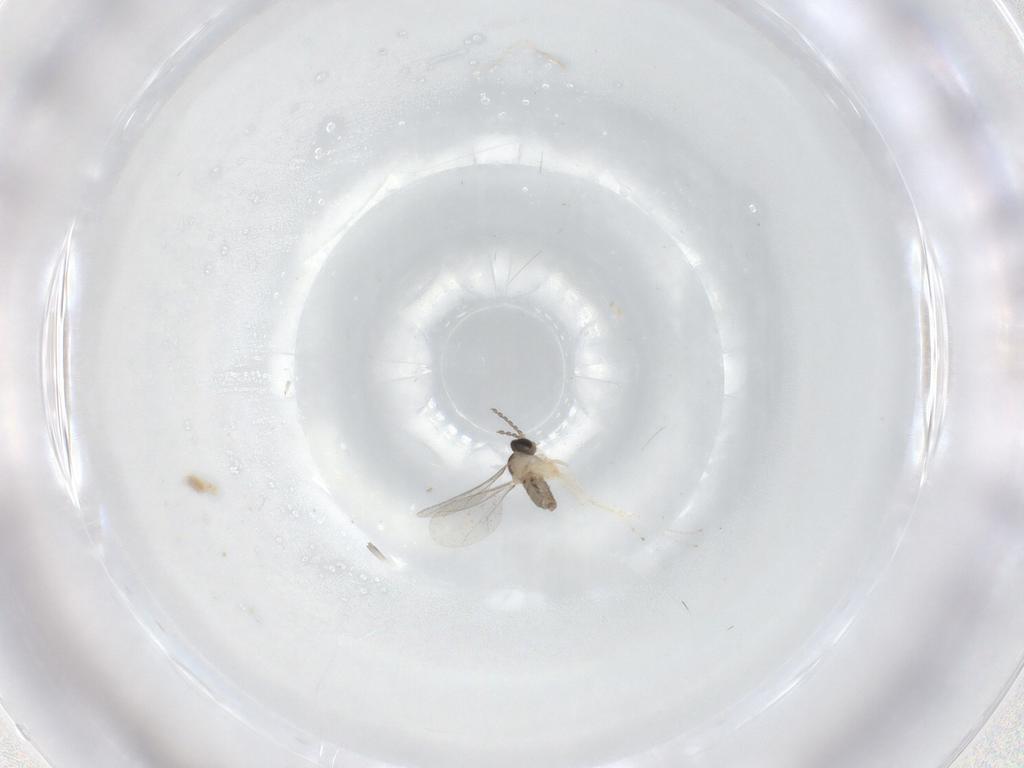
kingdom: Animalia
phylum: Arthropoda
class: Insecta
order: Diptera
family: Cecidomyiidae
